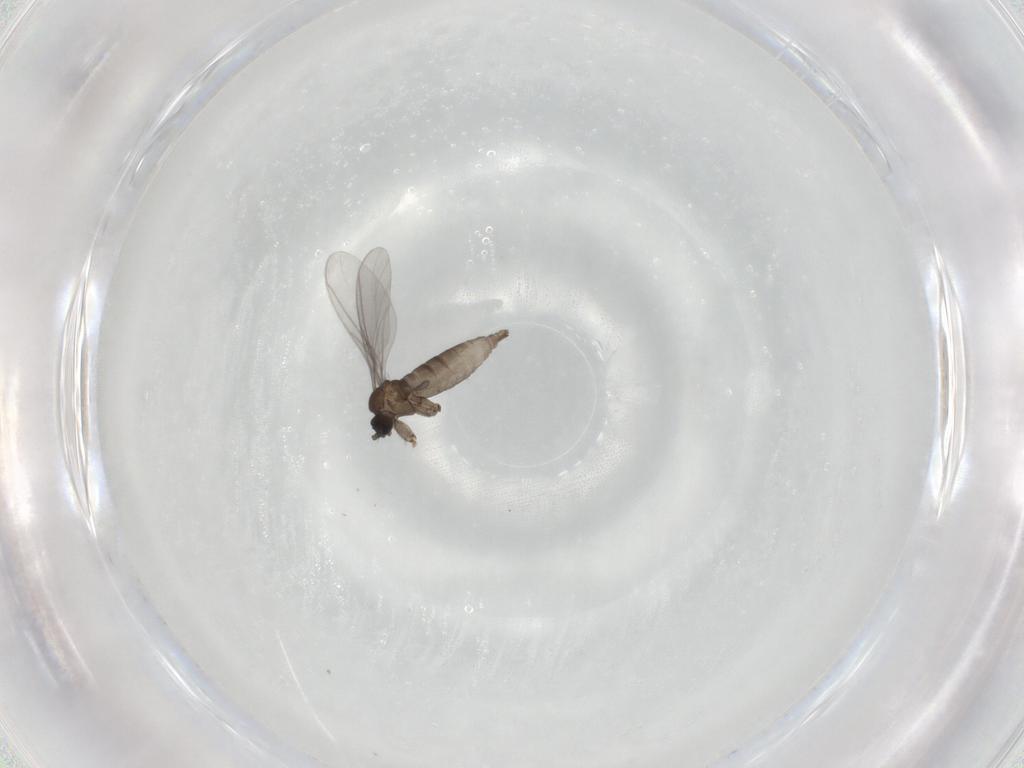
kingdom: Animalia
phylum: Arthropoda
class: Insecta
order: Diptera
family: Sciaridae
